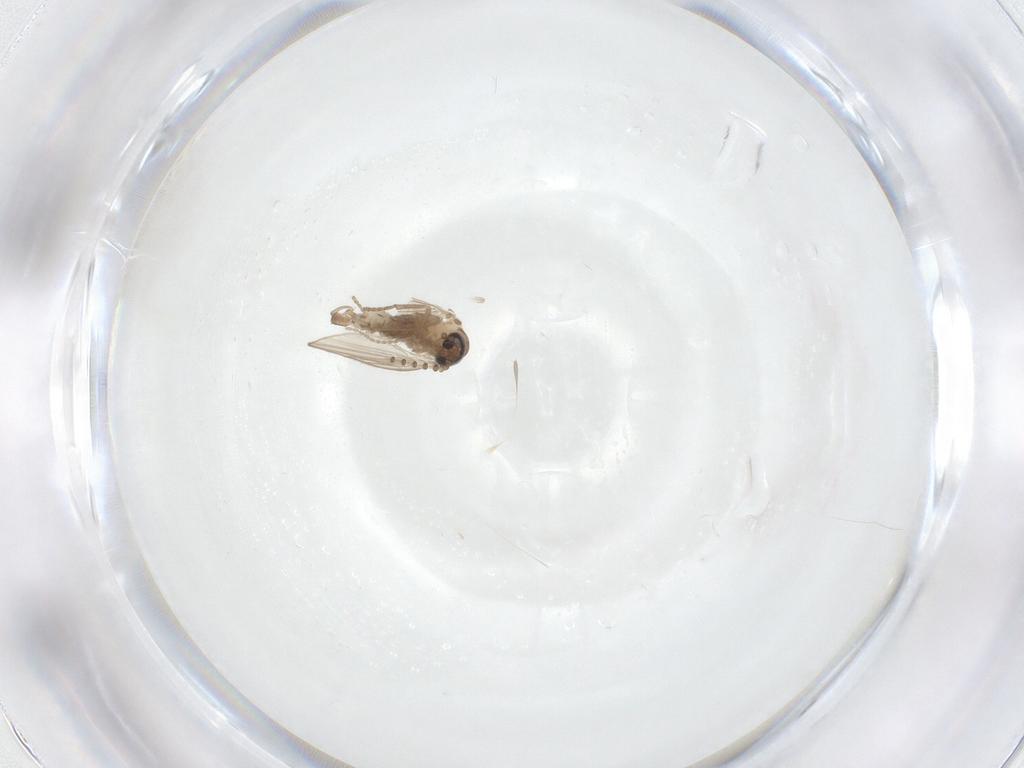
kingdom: Animalia
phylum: Arthropoda
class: Insecta
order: Diptera
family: Ceratopogonidae
